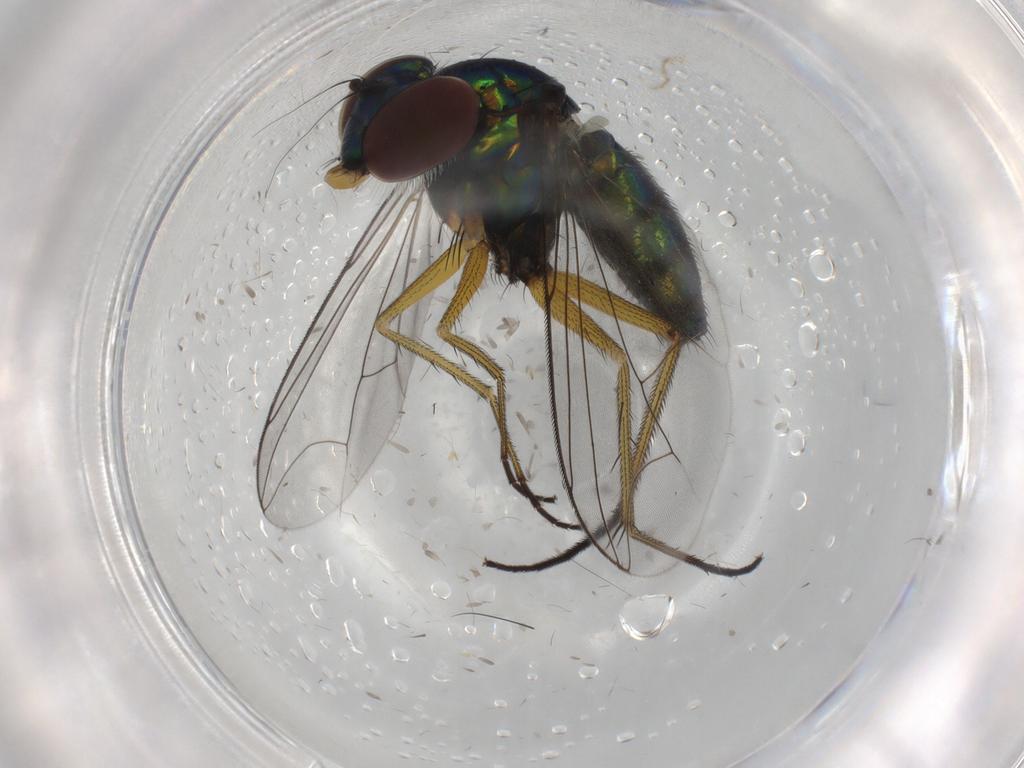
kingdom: Animalia
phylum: Arthropoda
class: Insecta
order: Diptera
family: Dolichopodidae
